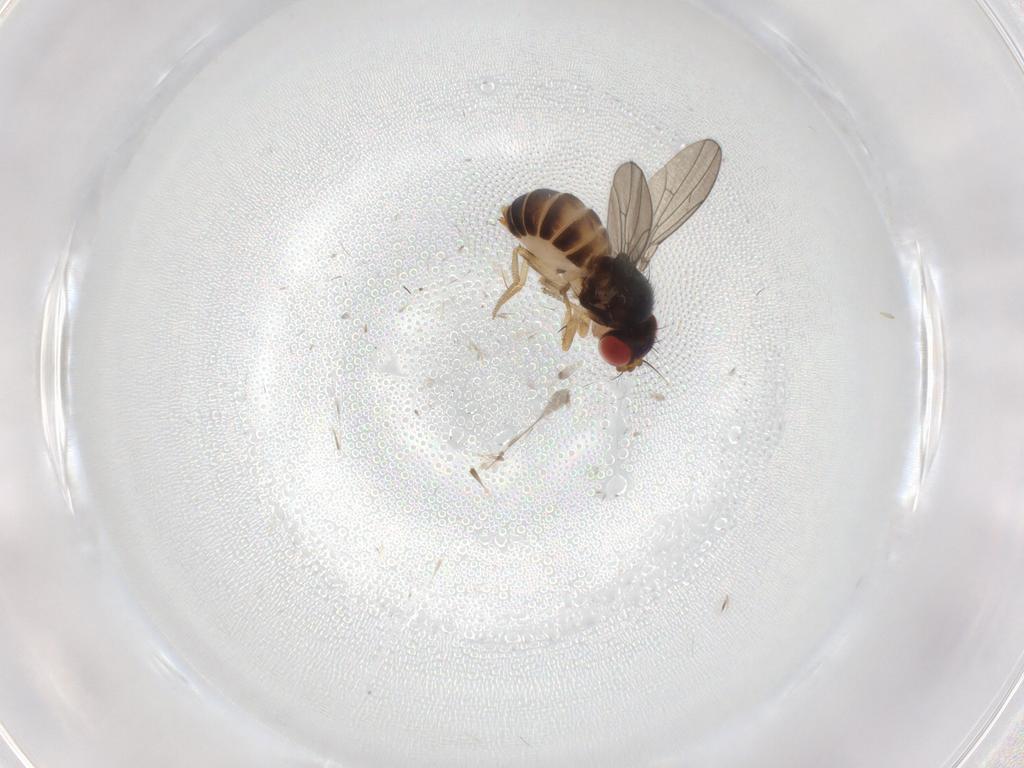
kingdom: Animalia
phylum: Arthropoda
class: Insecta
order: Diptera
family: Drosophilidae
